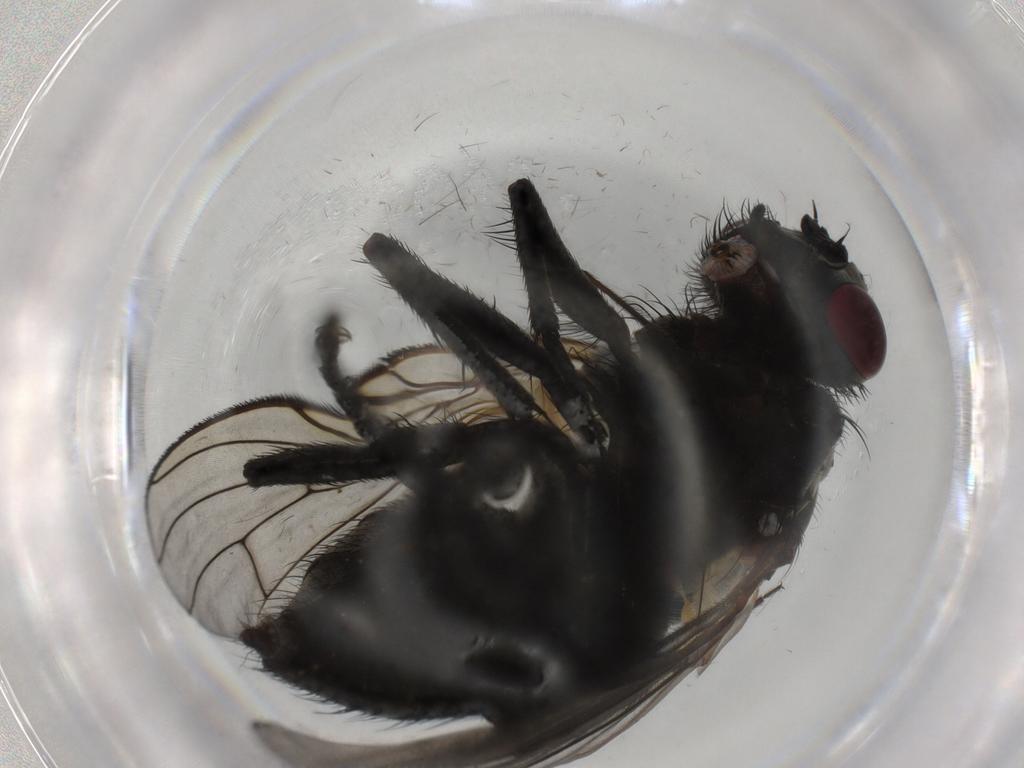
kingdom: Animalia
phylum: Arthropoda
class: Insecta
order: Diptera
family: Muscidae
